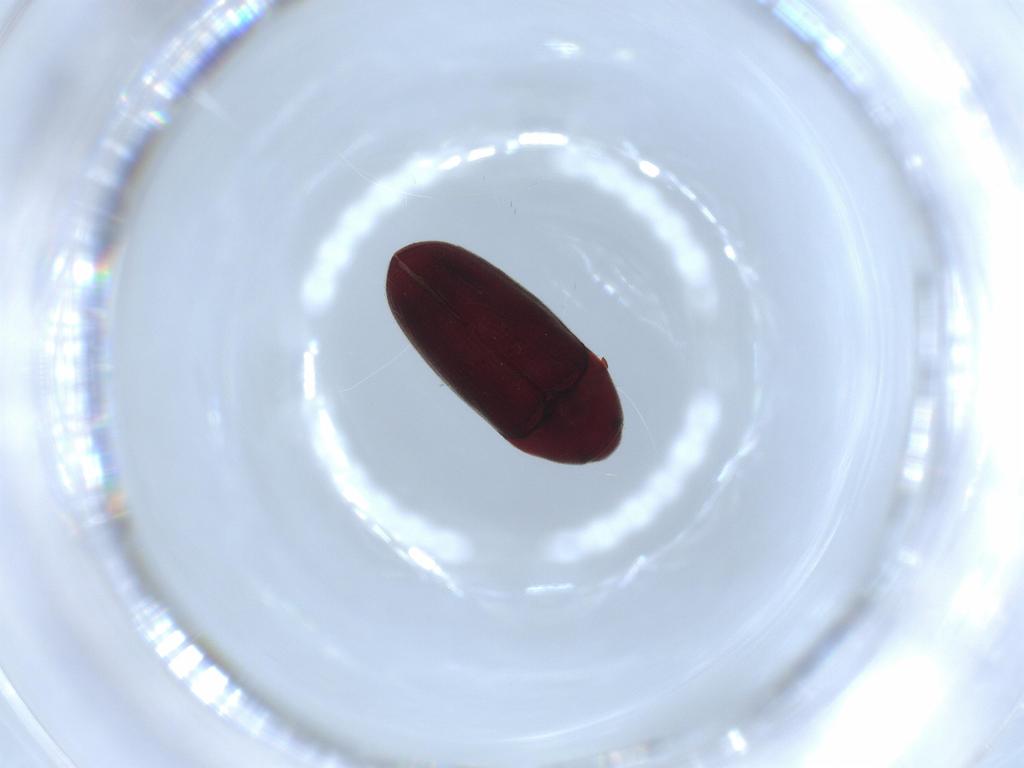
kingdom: Animalia
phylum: Arthropoda
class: Insecta
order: Coleoptera
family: Throscidae
